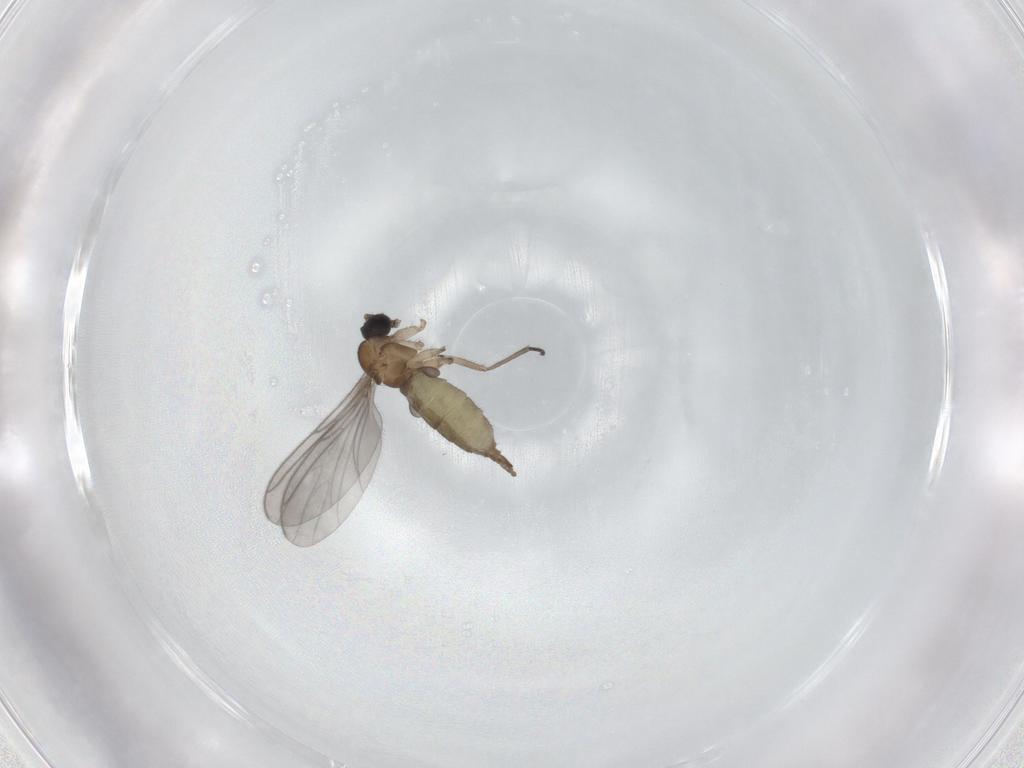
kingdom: Animalia
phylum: Arthropoda
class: Insecta
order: Diptera
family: Sciaridae
